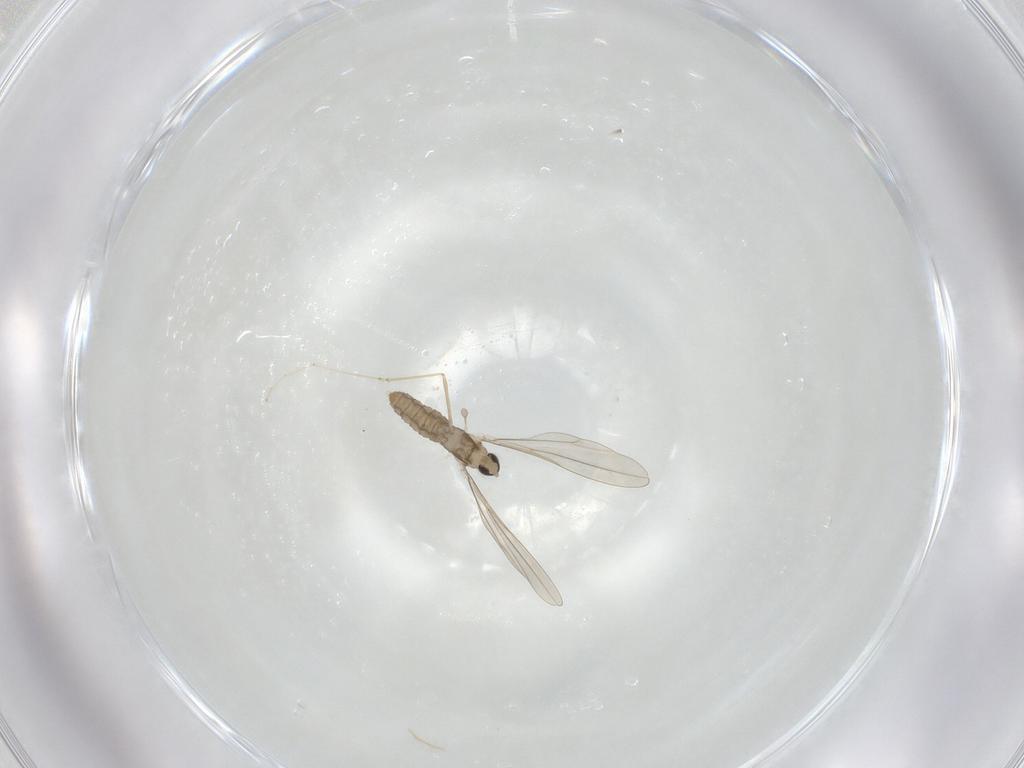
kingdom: Animalia
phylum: Arthropoda
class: Insecta
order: Diptera
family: Cecidomyiidae
